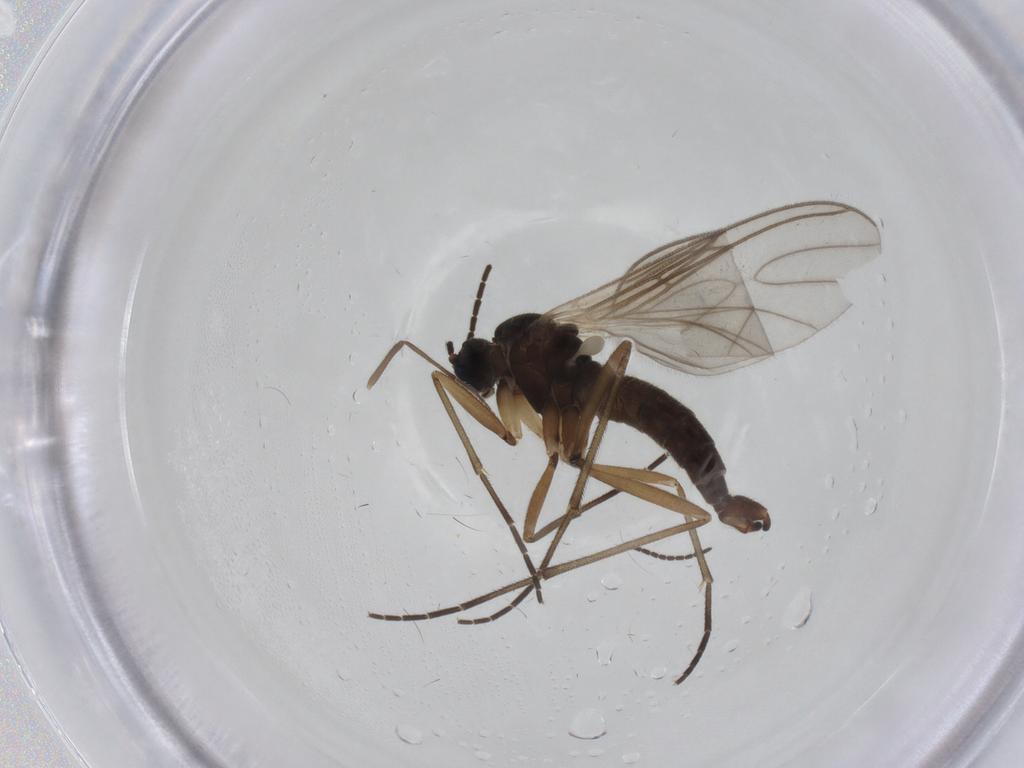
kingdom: Animalia
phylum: Arthropoda
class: Insecta
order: Diptera
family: Sciaridae
